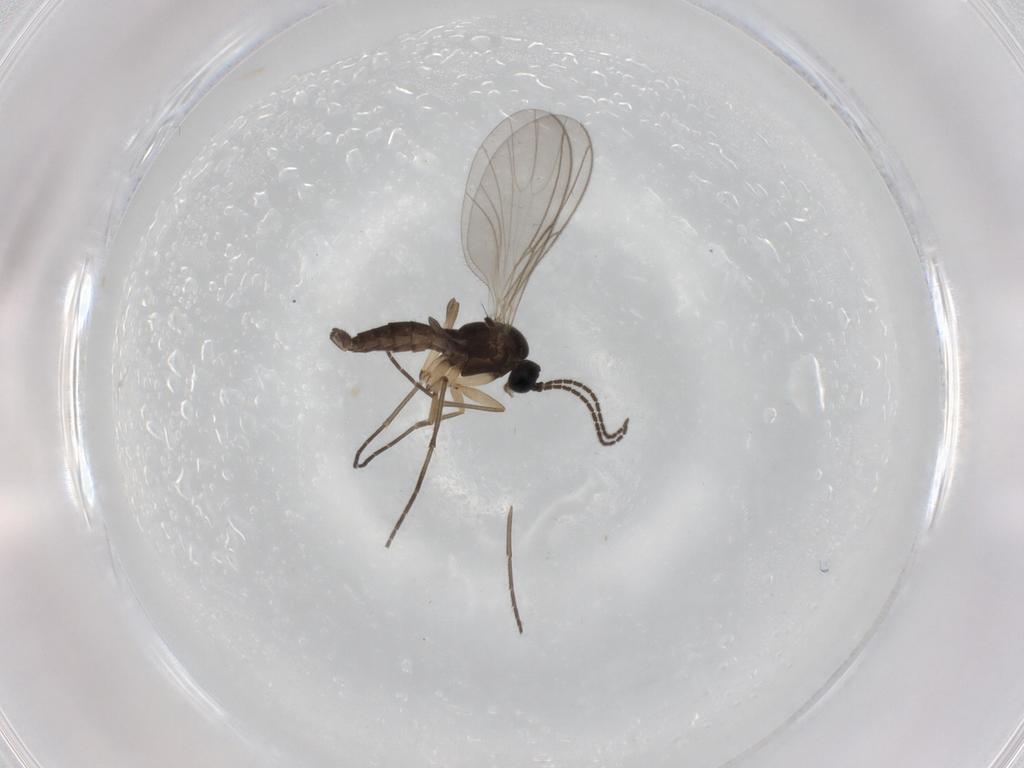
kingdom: Animalia
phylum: Arthropoda
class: Insecta
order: Diptera
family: Sciaridae
